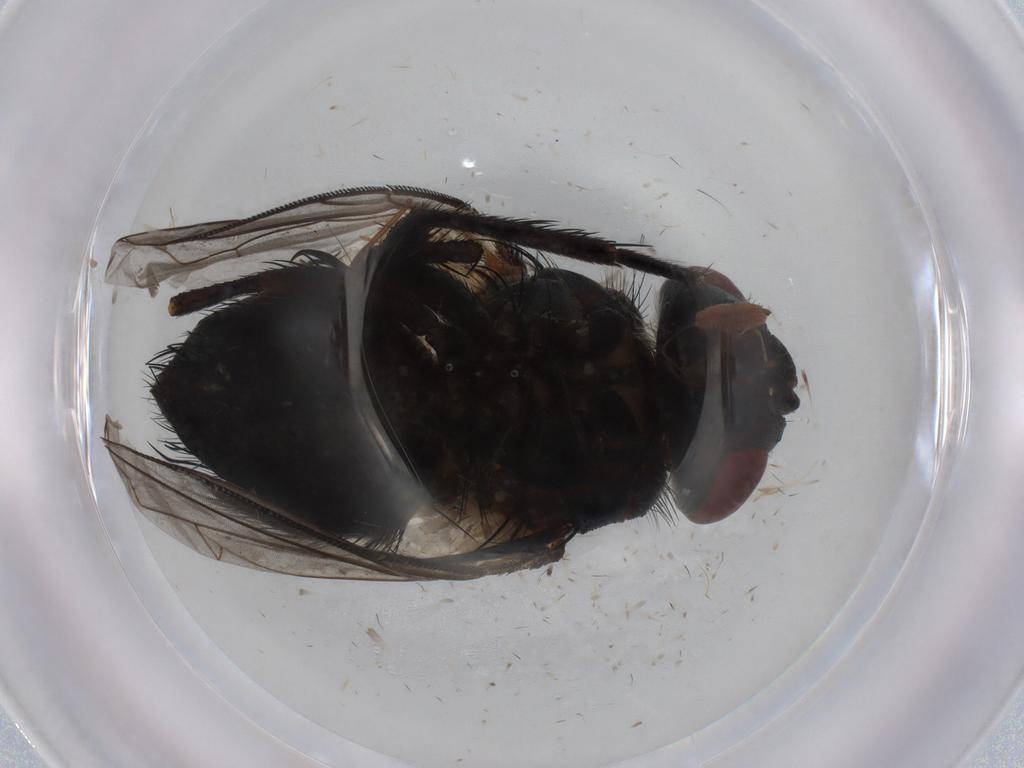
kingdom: Animalia
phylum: Arthropoda
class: Insecta
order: Diptera
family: Tachinidae
